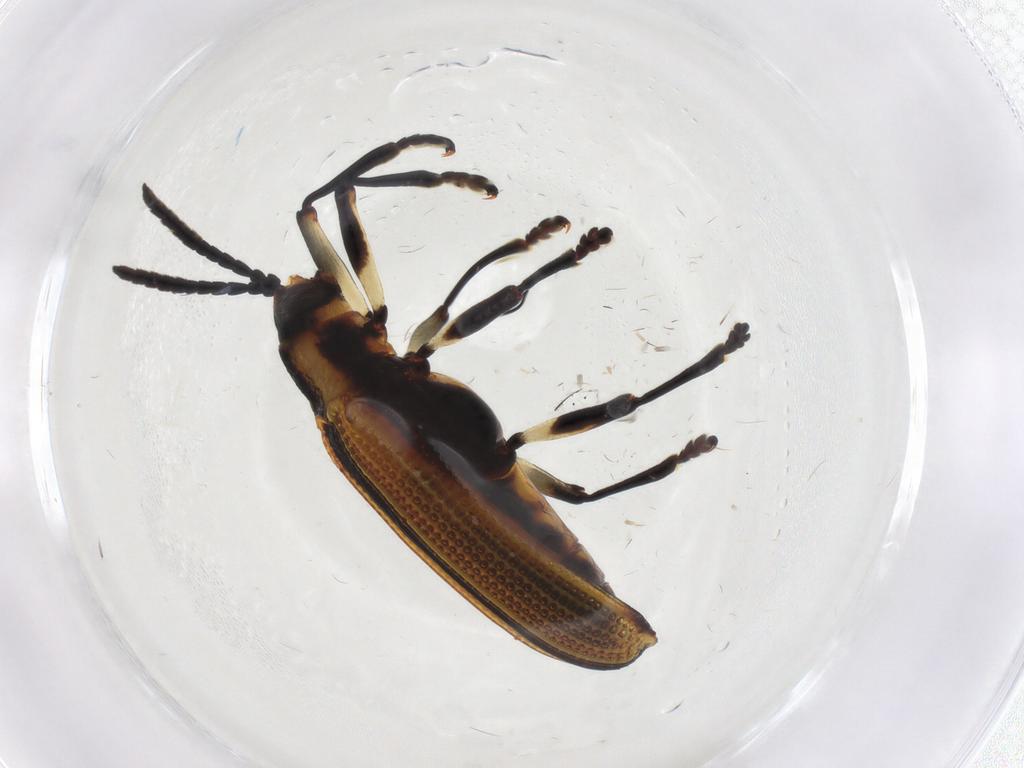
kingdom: Animalia
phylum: Arthropoda
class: Insecta
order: Coleoptera
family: Chrysomelidae
